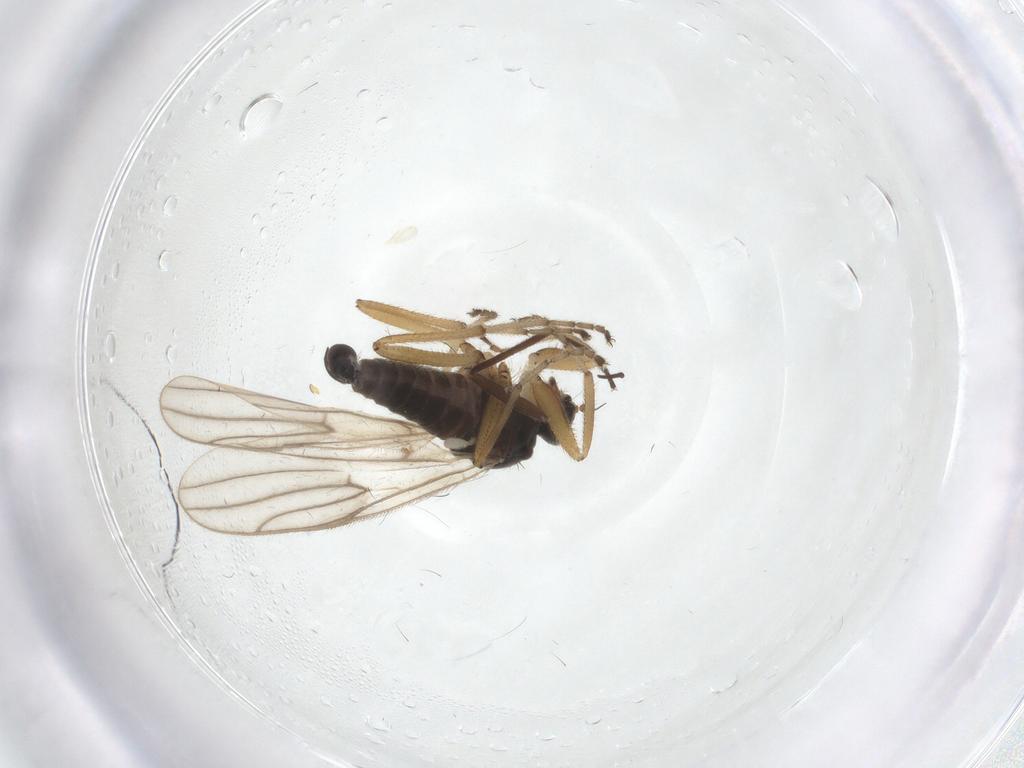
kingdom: Animalia
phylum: Arthropoda
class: Insecta
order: Diptera
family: Hybotidae
